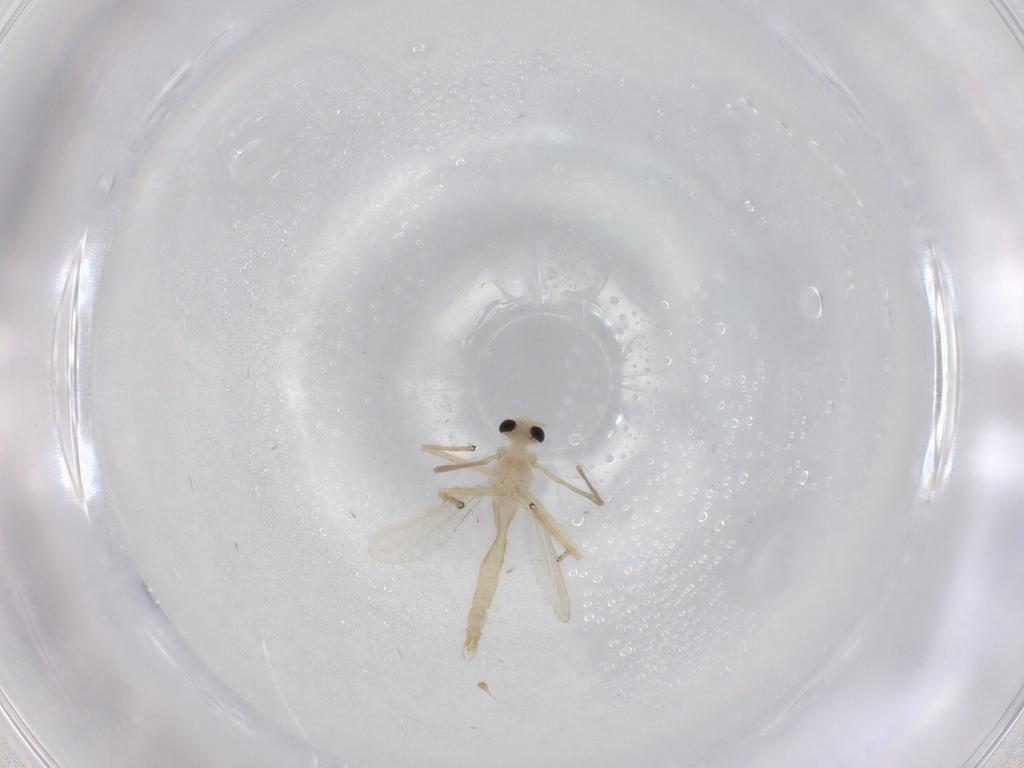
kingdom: Animalia
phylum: Arthropoda
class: Insecta
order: Diptera
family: Chironomidae
